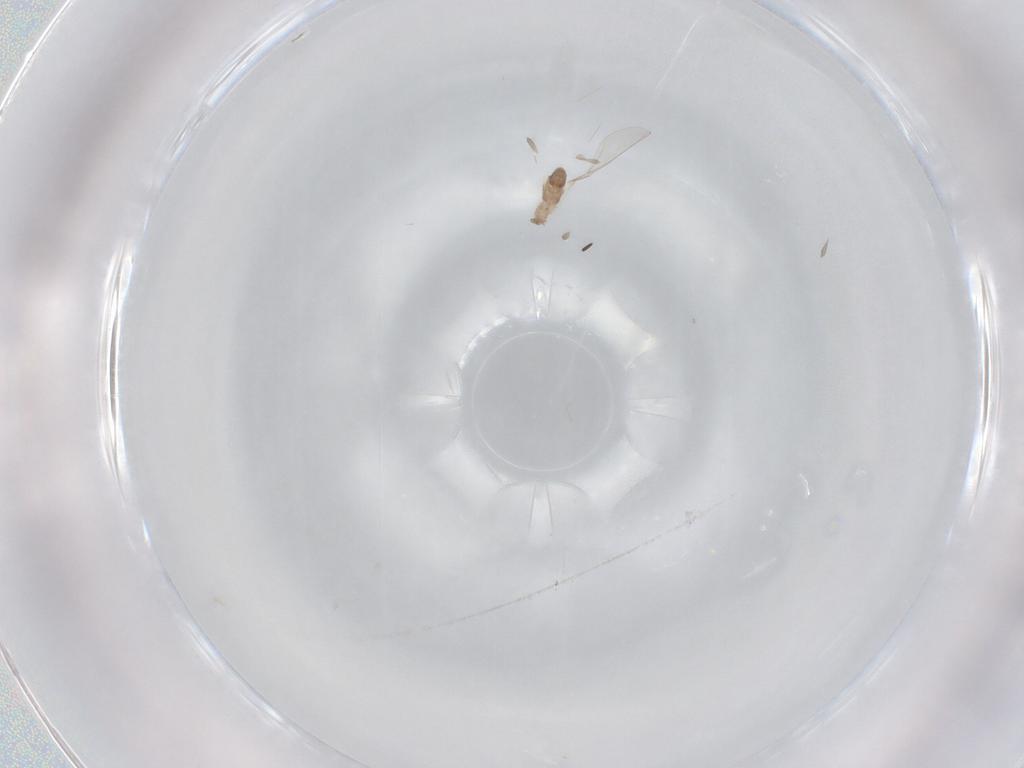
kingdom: Animalia
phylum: Arthropoda
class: Insecta
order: Diptera
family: Cecidomyiidae
